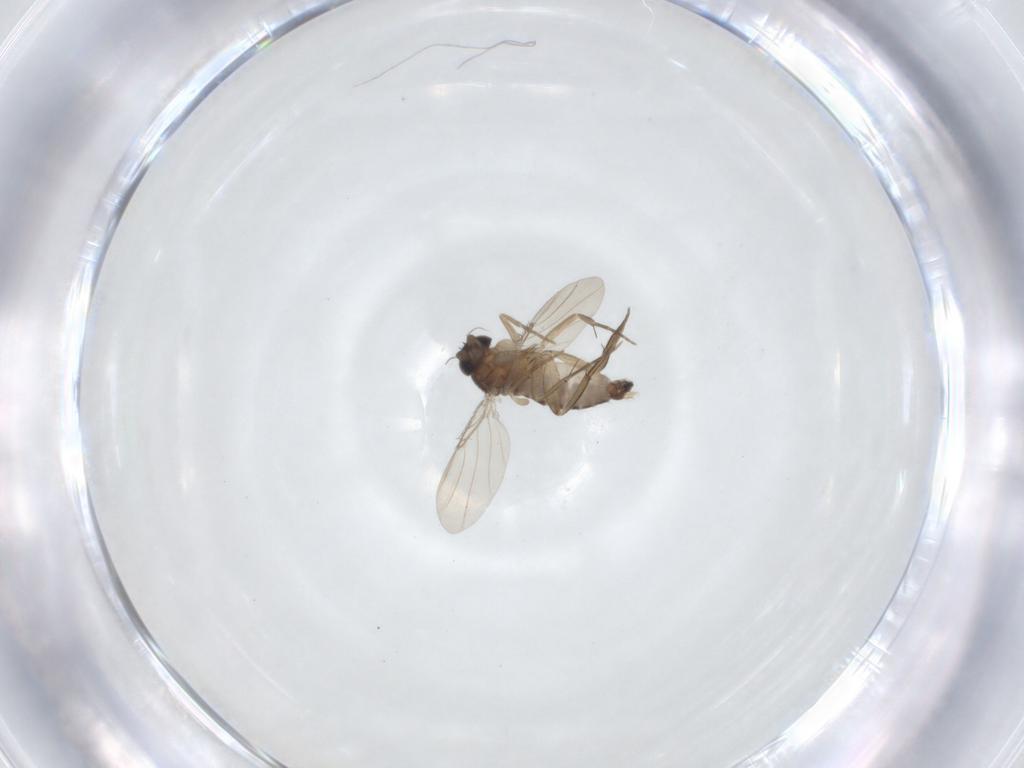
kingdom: Animalia
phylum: Arthropoda
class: Insecta
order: Diptera
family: Phoridae
